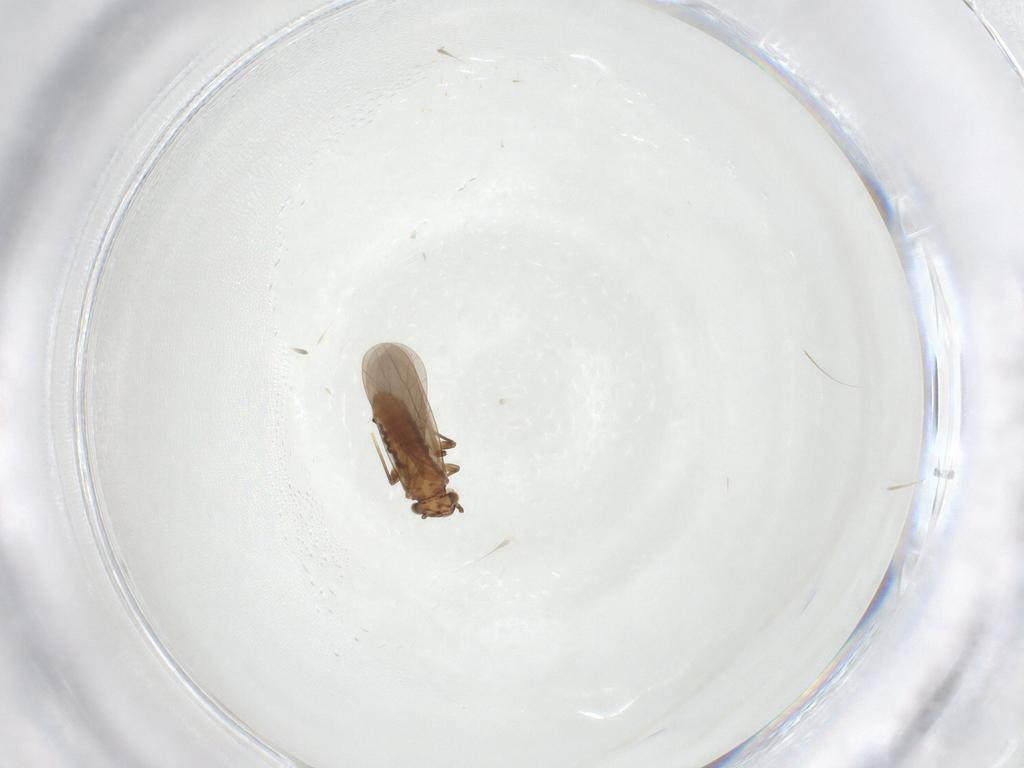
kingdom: Animalia
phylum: Arthropoda
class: Insecta
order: Psocodea
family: Lepidopsocidae
